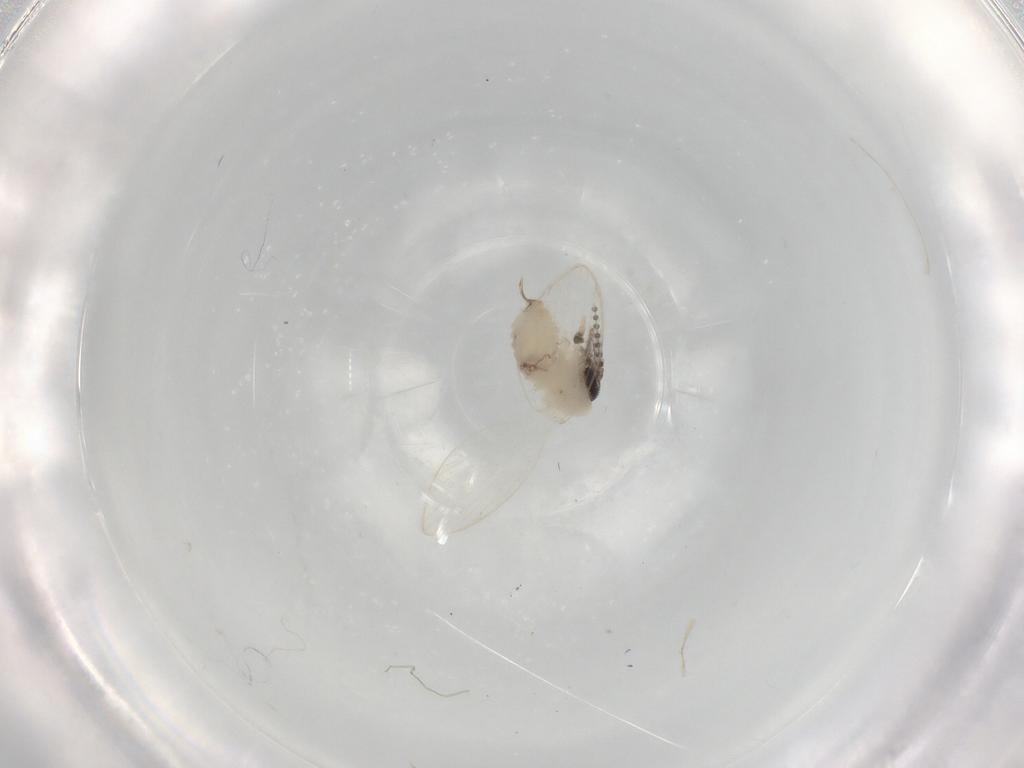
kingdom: Animalia
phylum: Arthropoda
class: Insecta
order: Diptera
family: Psychodidae
